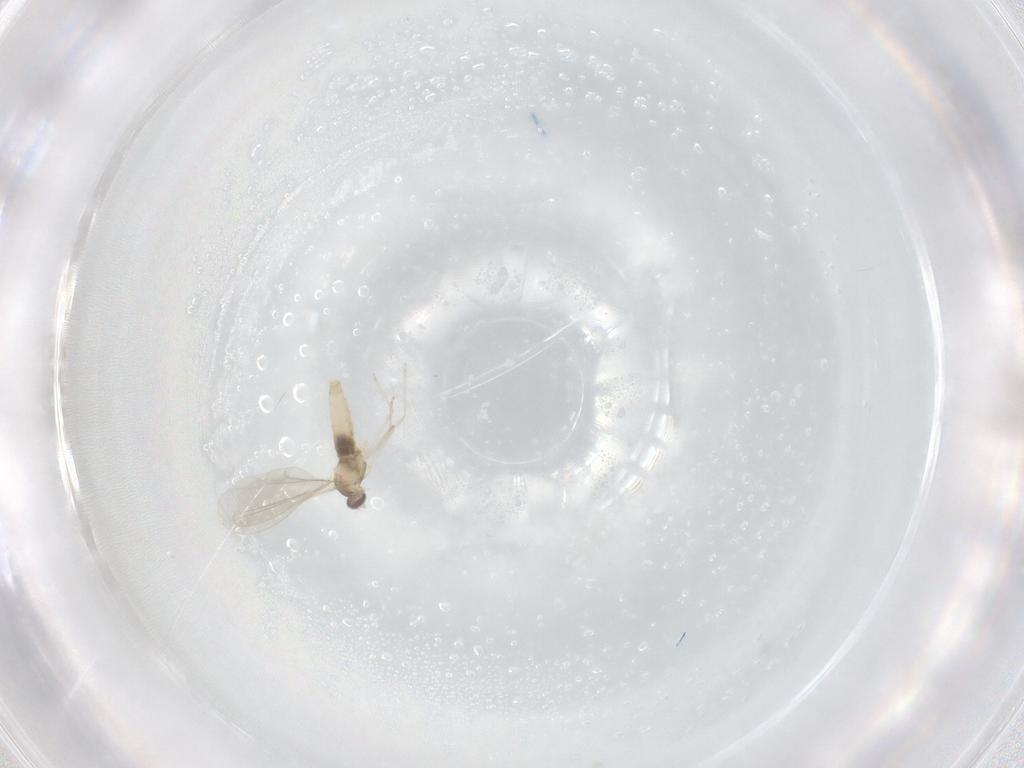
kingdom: Animalia
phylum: Arthropoda
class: Insecta
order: Diptera
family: Cecidomyiidae
